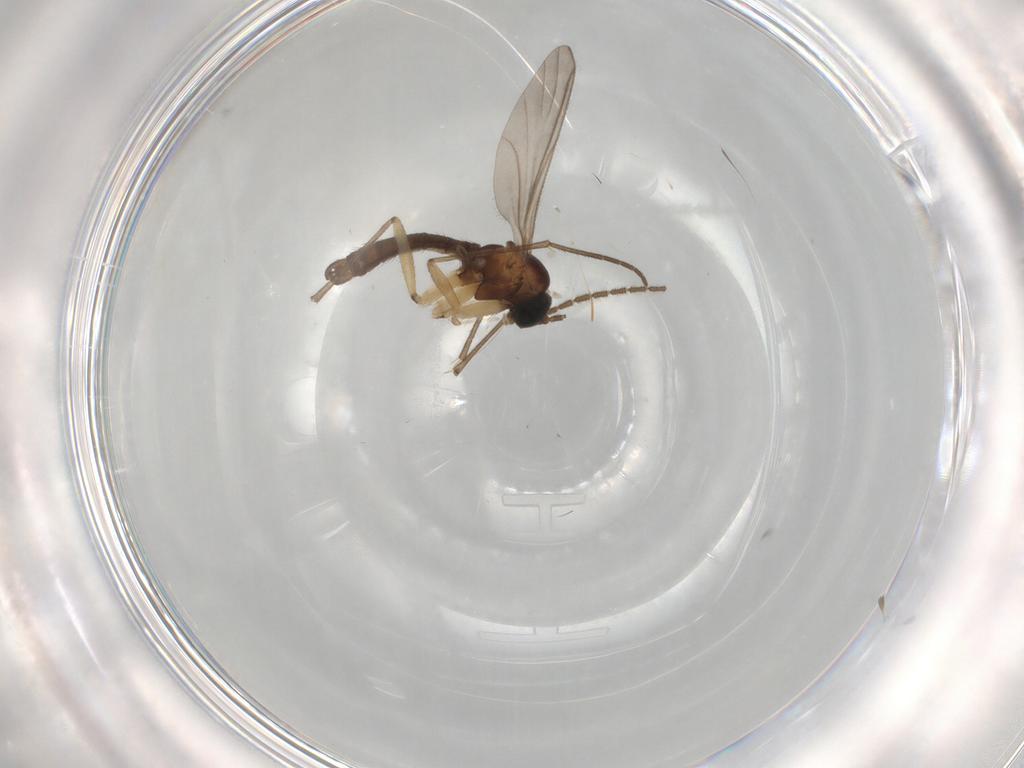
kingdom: Animalia
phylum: Arthropoda
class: Insecta
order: Diptera
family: Sciaridae
